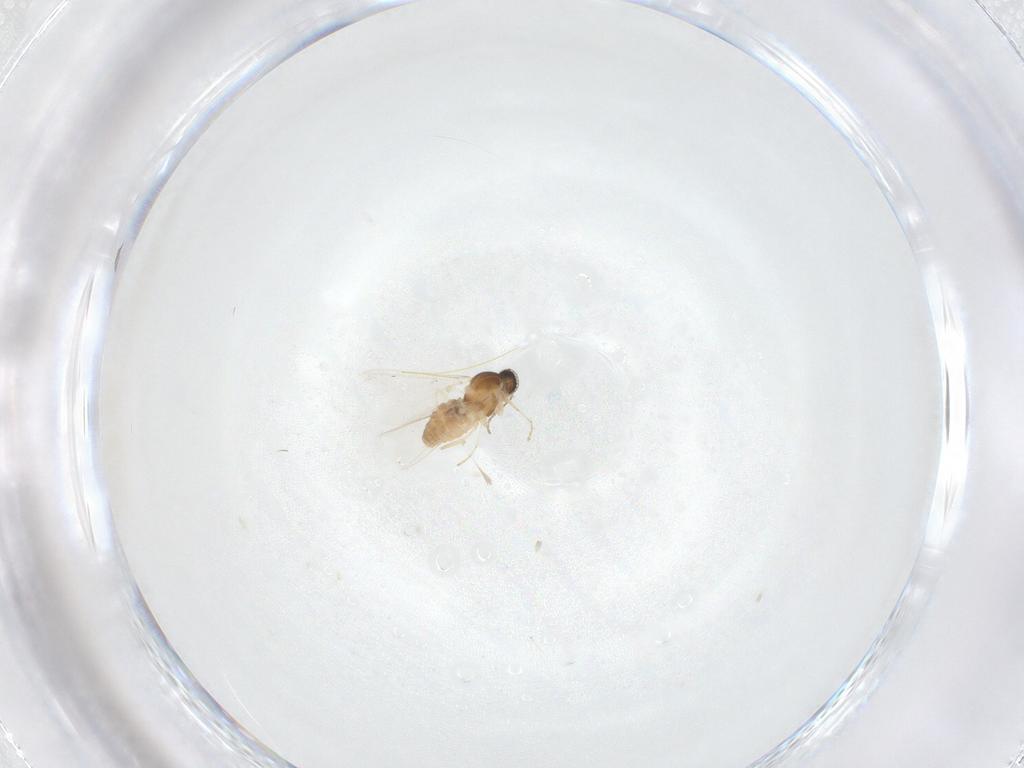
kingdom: Animalia
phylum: Arthropoda
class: Insecta
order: Diptera
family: Cecidomyiidae
